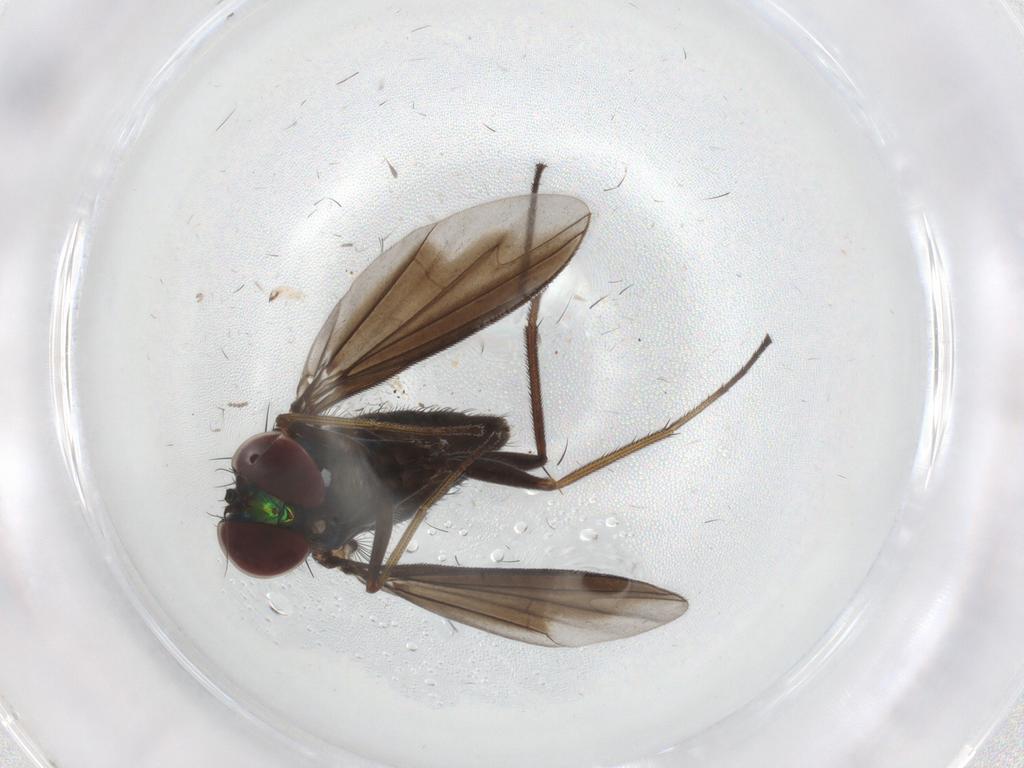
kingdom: Animalia
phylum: Arthropoda
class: Insecta
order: Diptera
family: Dolichopodidae
